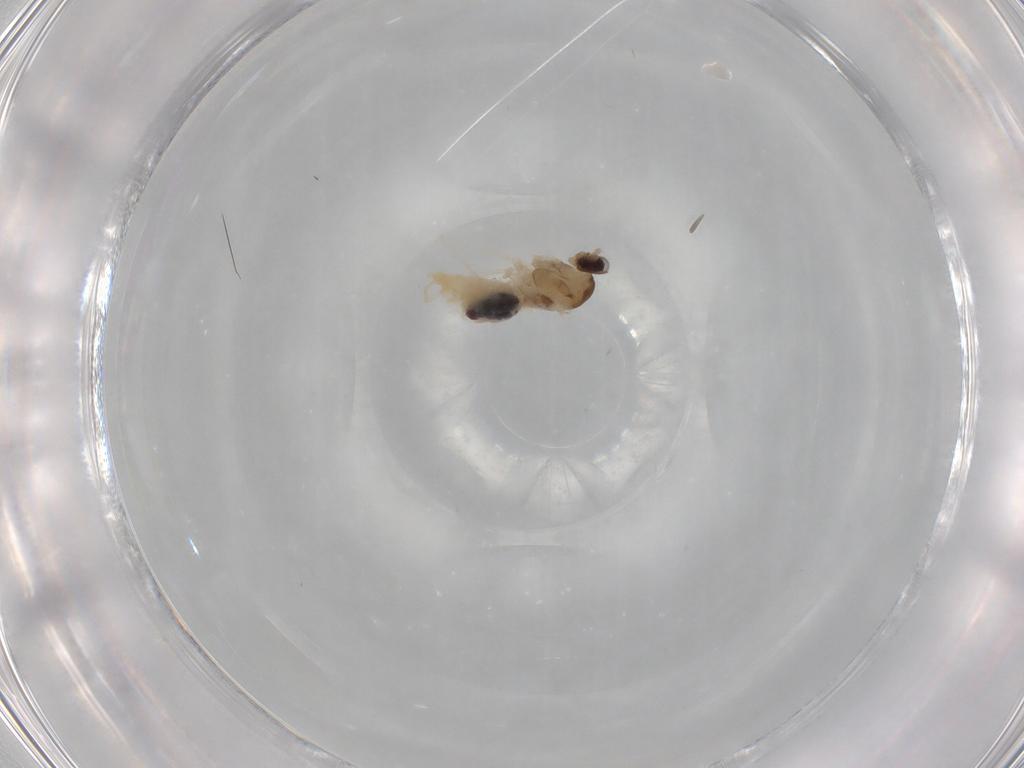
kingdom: Animalia
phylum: Arthropoda
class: Insecta
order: Diptera
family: Cecidomyiidae
